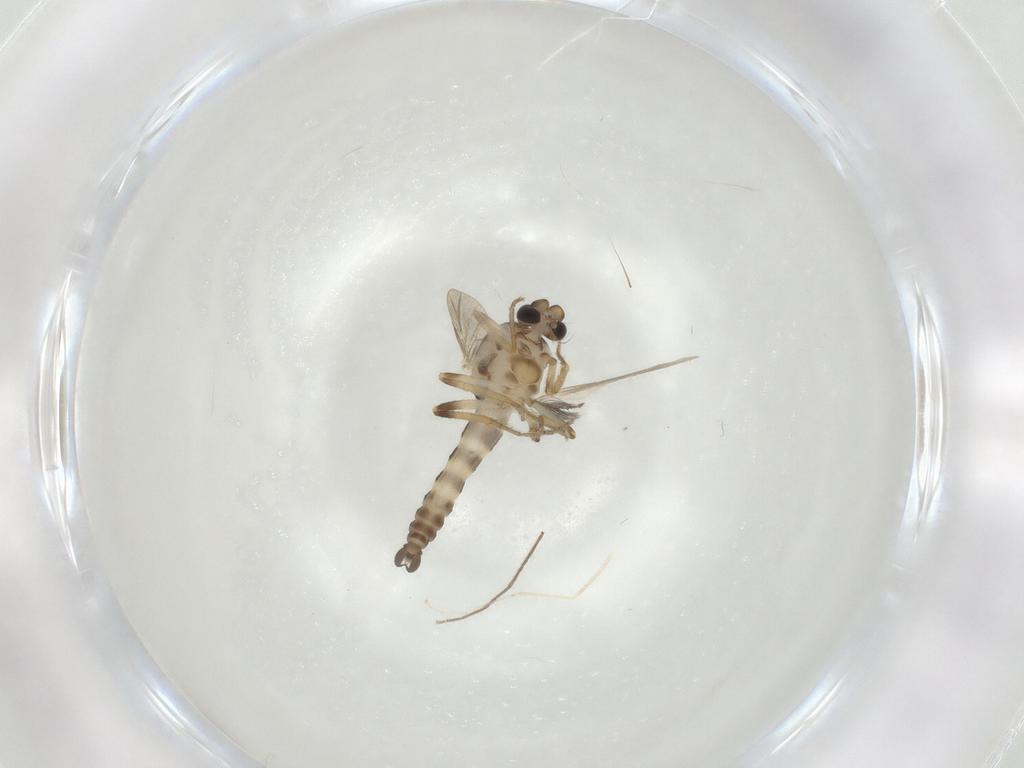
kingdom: Animalia
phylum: Arthropoda
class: Insecta
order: Diptera
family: Ceratopogonidae
